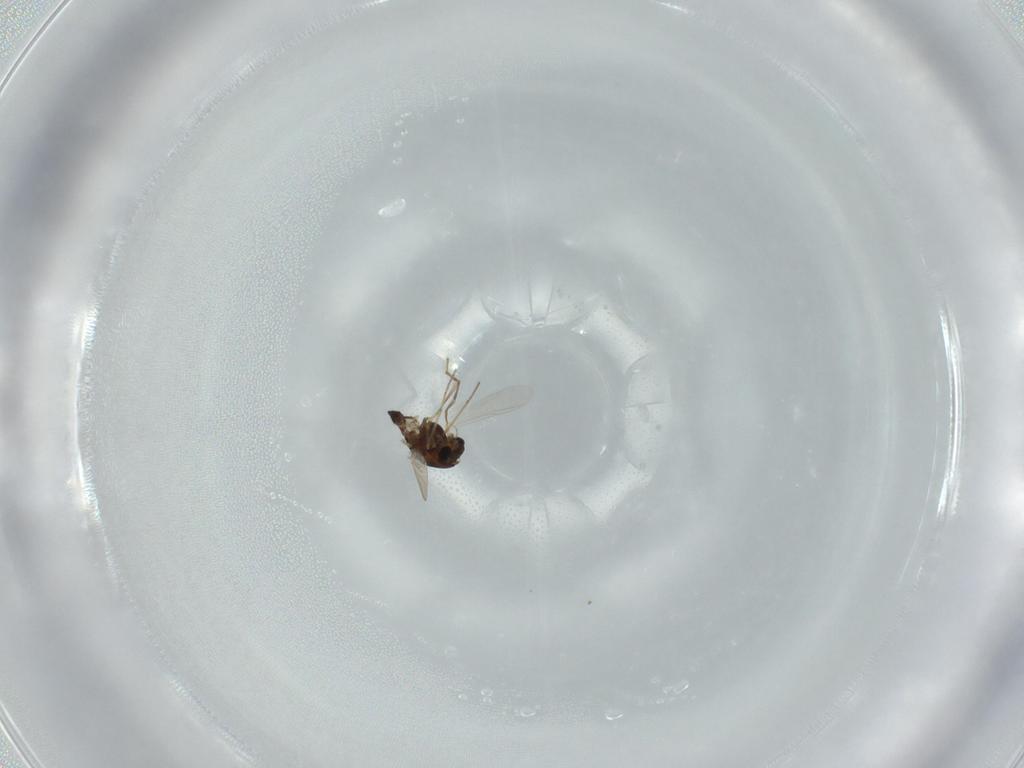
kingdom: Animalia
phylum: Arthropoda
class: Insecta
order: Diptera
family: Chironomidae
